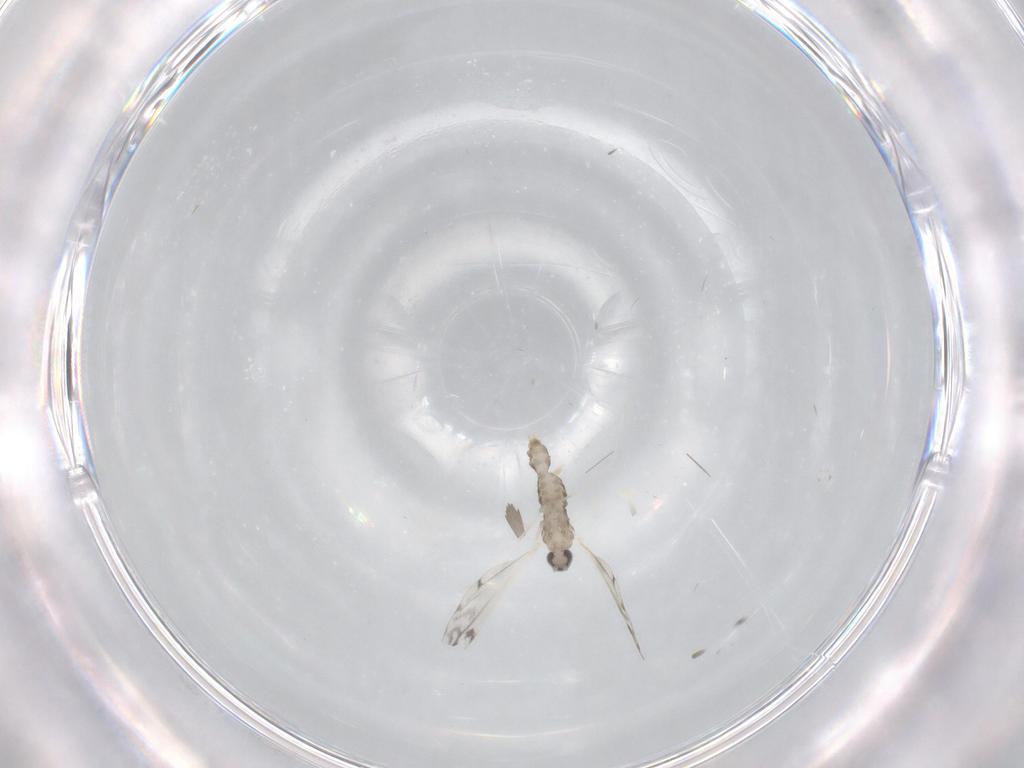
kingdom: Animalia
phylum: Arthropoda
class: Insecta
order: Diptera
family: Cecidomyiidae
